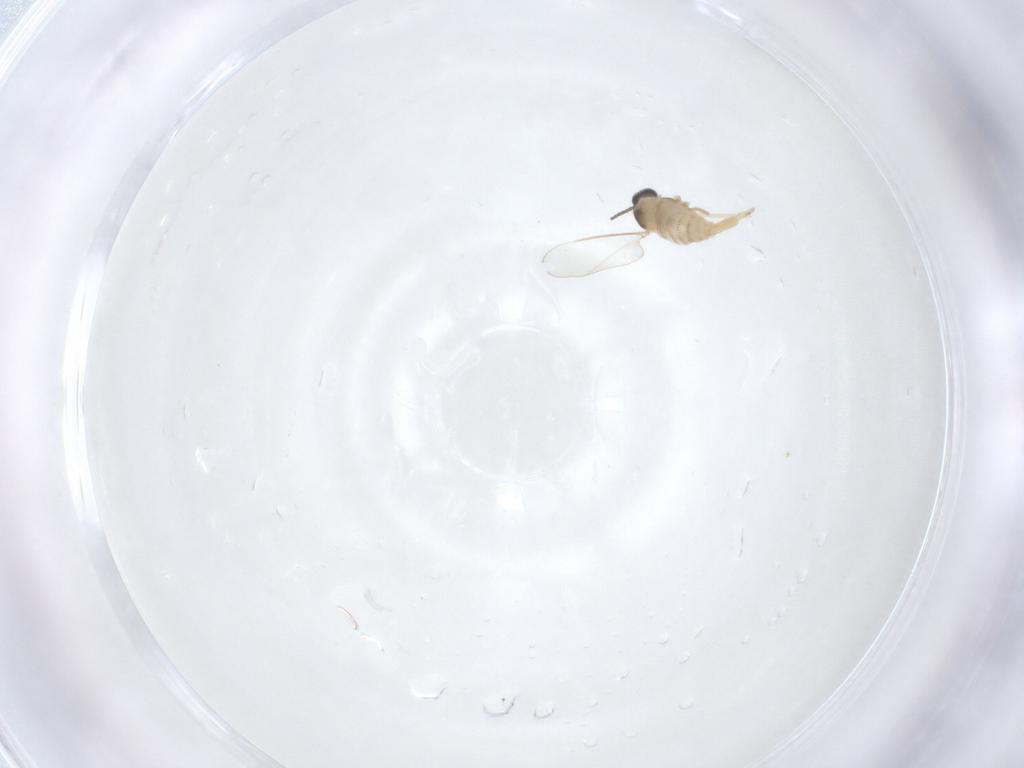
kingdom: Animalia
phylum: Arthropoda
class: Insecta
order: Diptera
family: Cecidomyiidae
